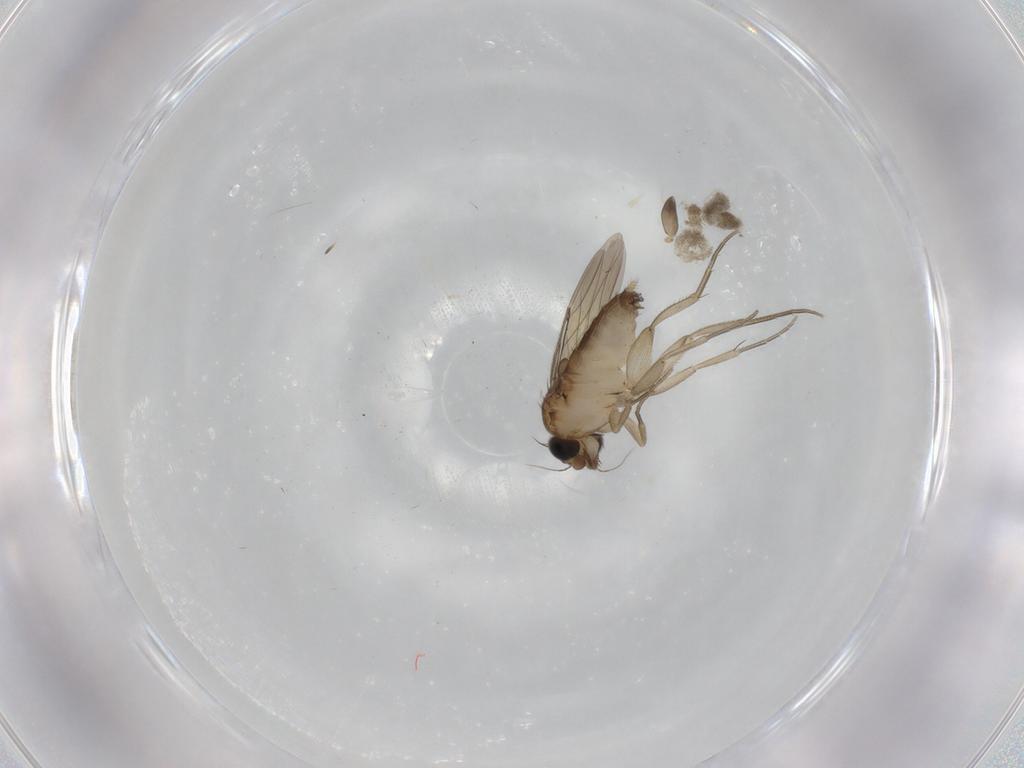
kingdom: Animalia
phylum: Arthropoda
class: Insecta
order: Diptera
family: Phoridae
